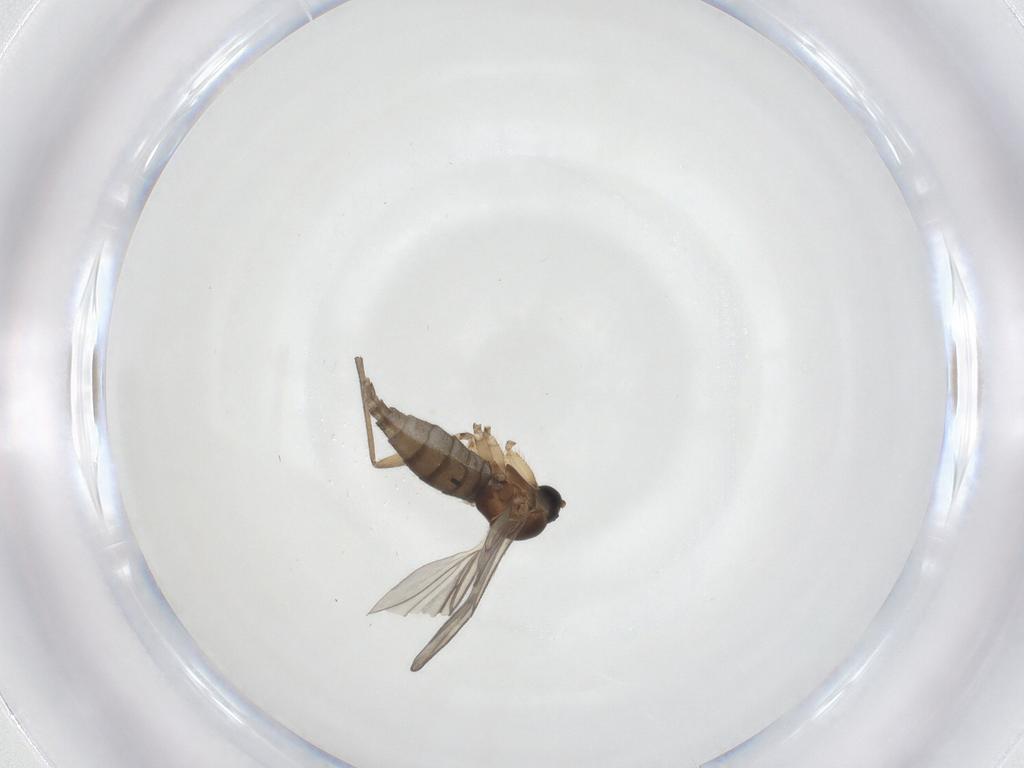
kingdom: Animalia
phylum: Arthropoda
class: Insecta
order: Diptera
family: Sciaridae
